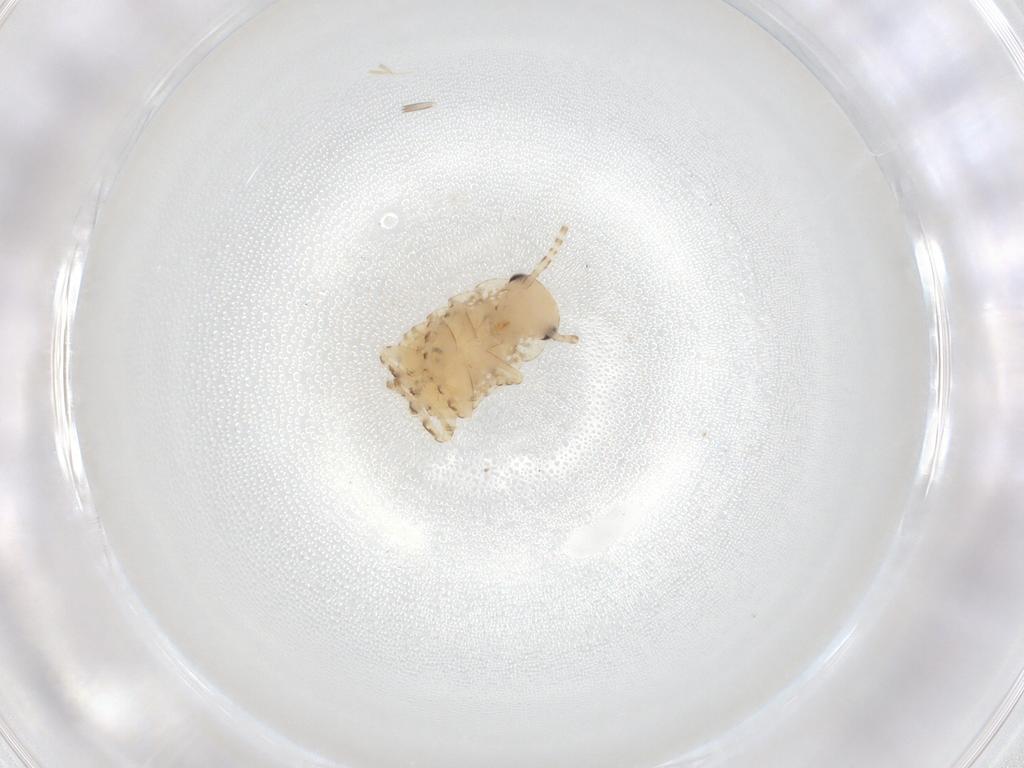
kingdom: Animalia
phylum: Arthropoda
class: Insecta
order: Blattodea
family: Ectobiidae
